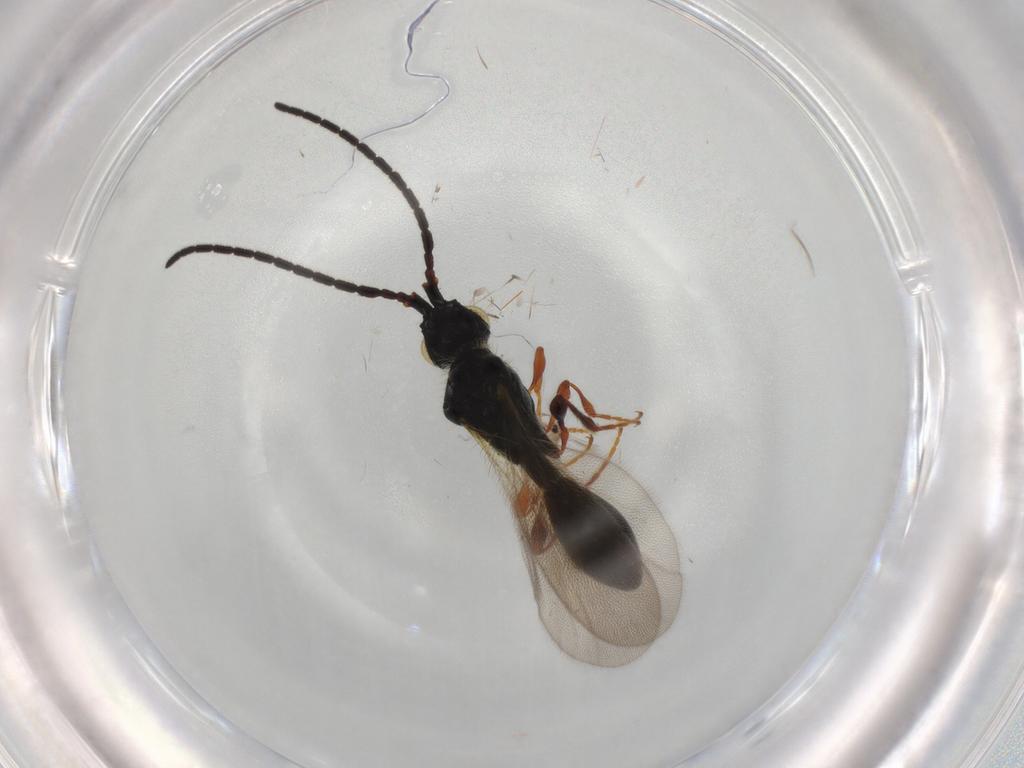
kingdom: Animalia
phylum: Arthropoda
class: Insecta
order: Hymenoptera
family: Diapriidae
